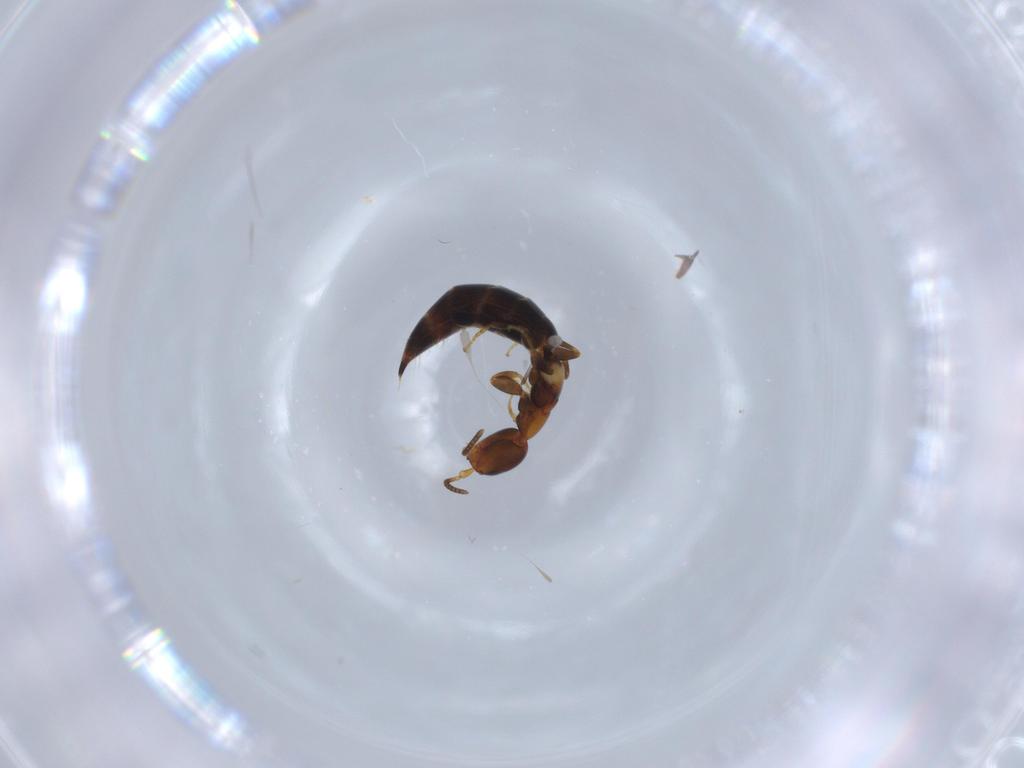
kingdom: Animalia
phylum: Arthropoda
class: Insecta
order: Hymenoptera
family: Bethylidae
